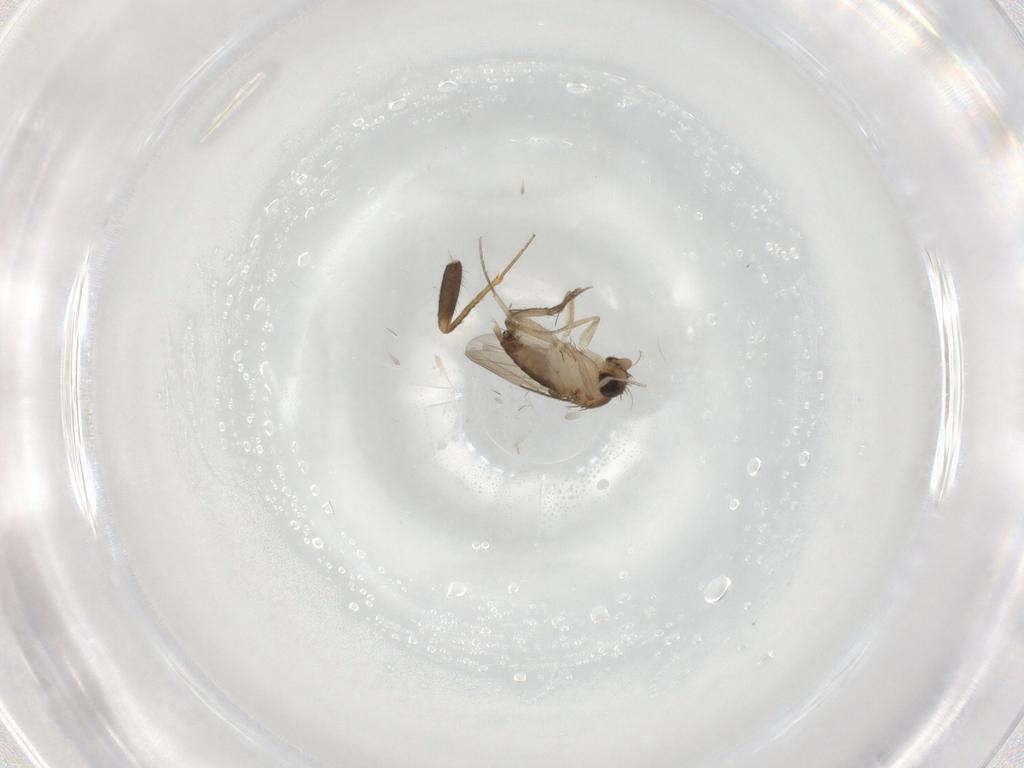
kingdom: Animalia
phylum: Arthropoda
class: Insecta
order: Diptera
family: Phoridae
